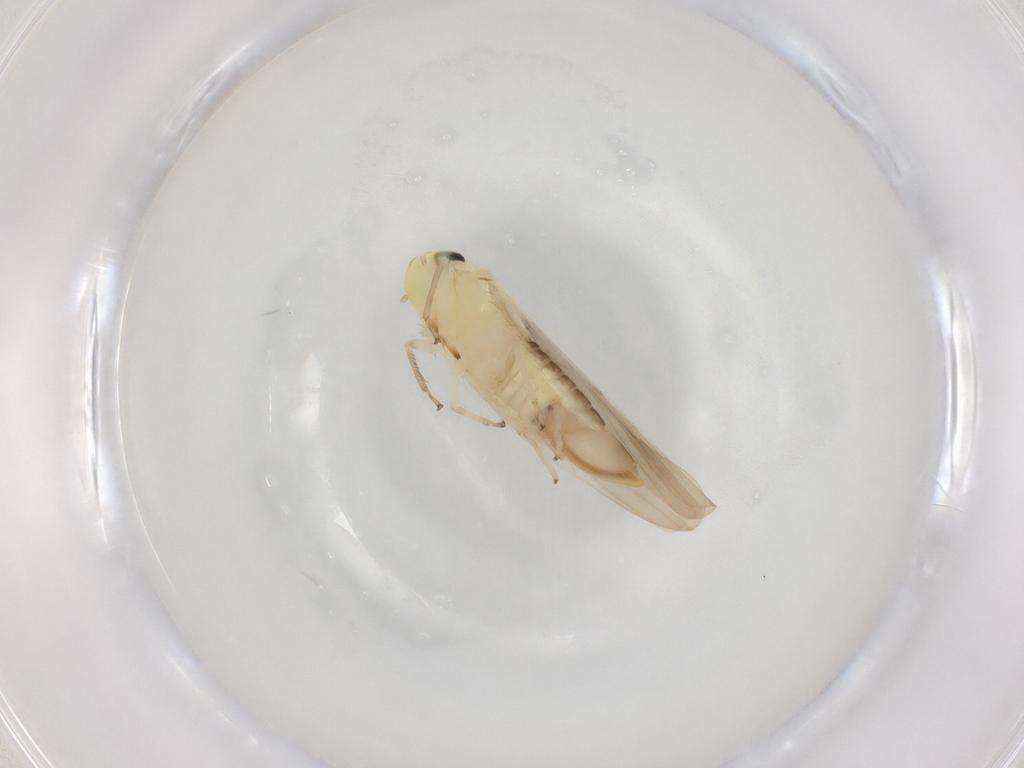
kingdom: Animalia
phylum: Arthropoda
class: Insecta
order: Hemiptera
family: Cicadellidae
